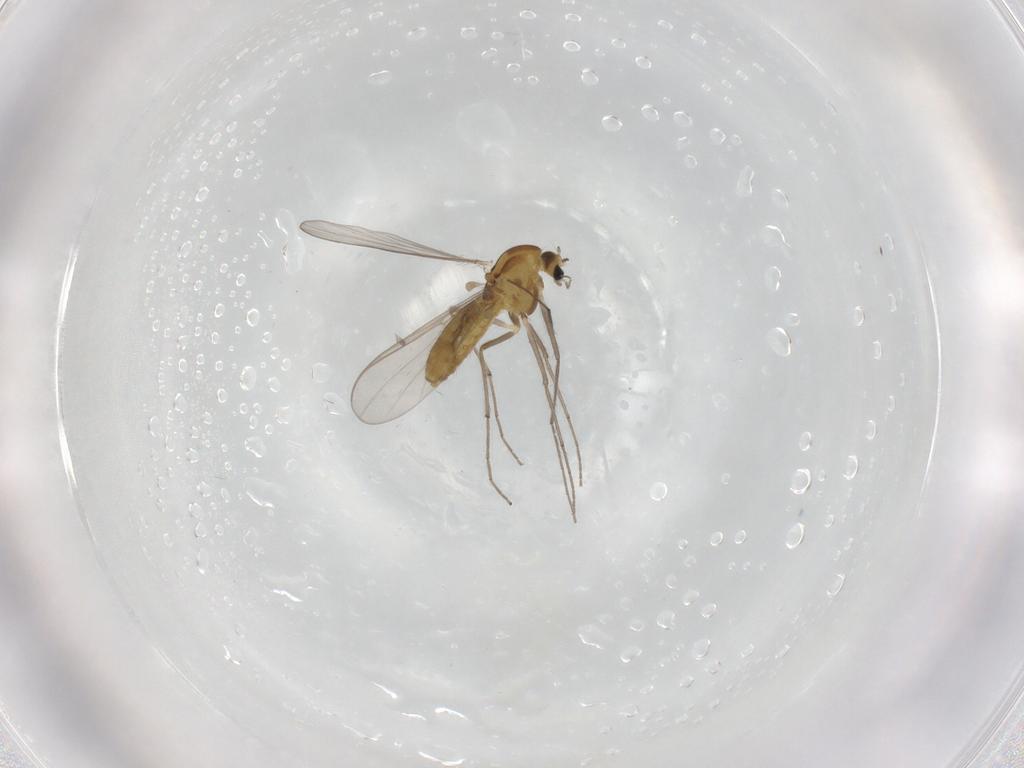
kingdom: Animalia
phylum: Arthropoda
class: Insecta
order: Diptera
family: Chironomidae
